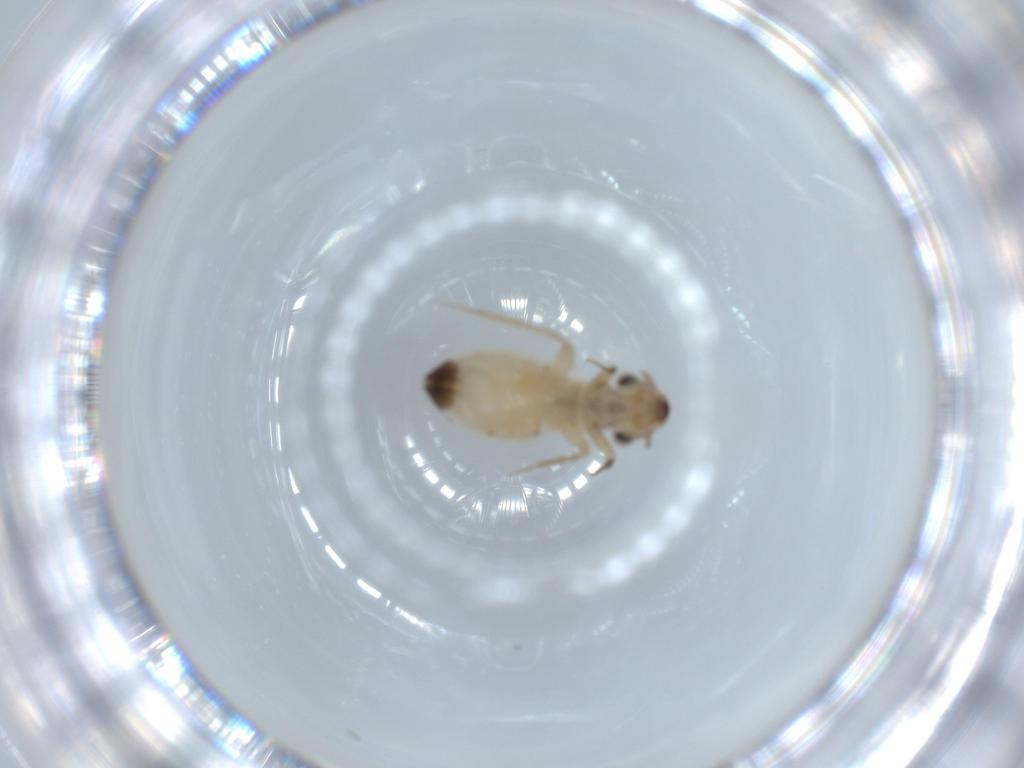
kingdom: Animalia
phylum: Arthropoda
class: Insecta
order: Psocodea
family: Lepidopsocidae
